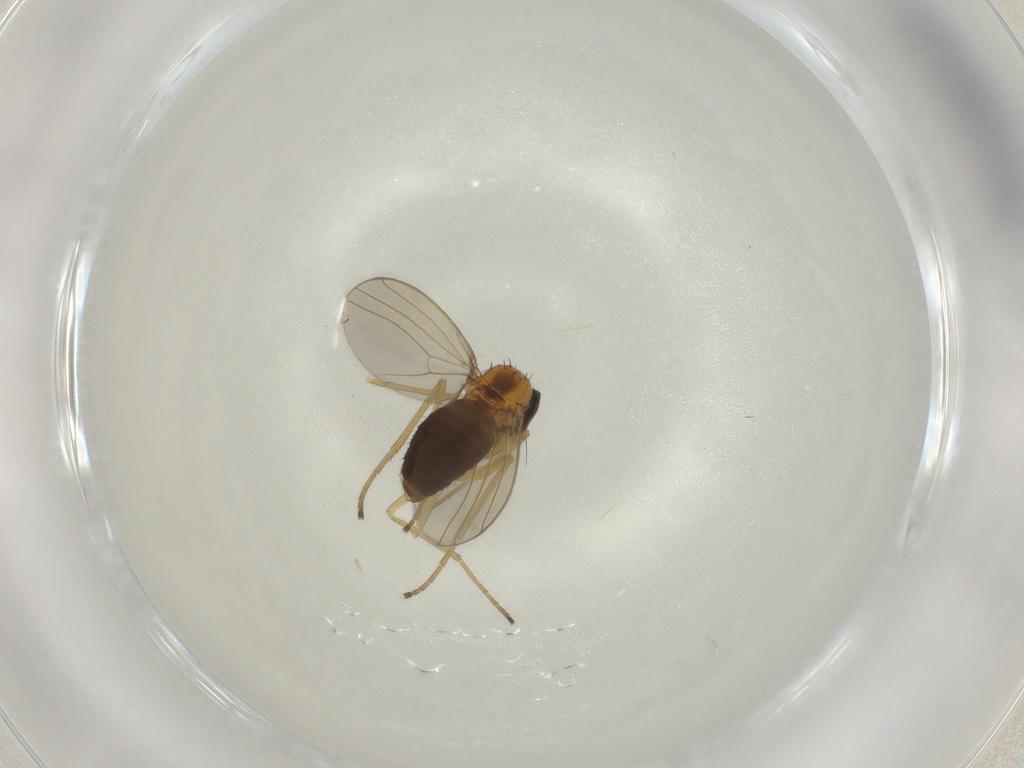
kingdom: Animalia
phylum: Arthropoda
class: Insecta
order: Diptera
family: Dolichopodidae
